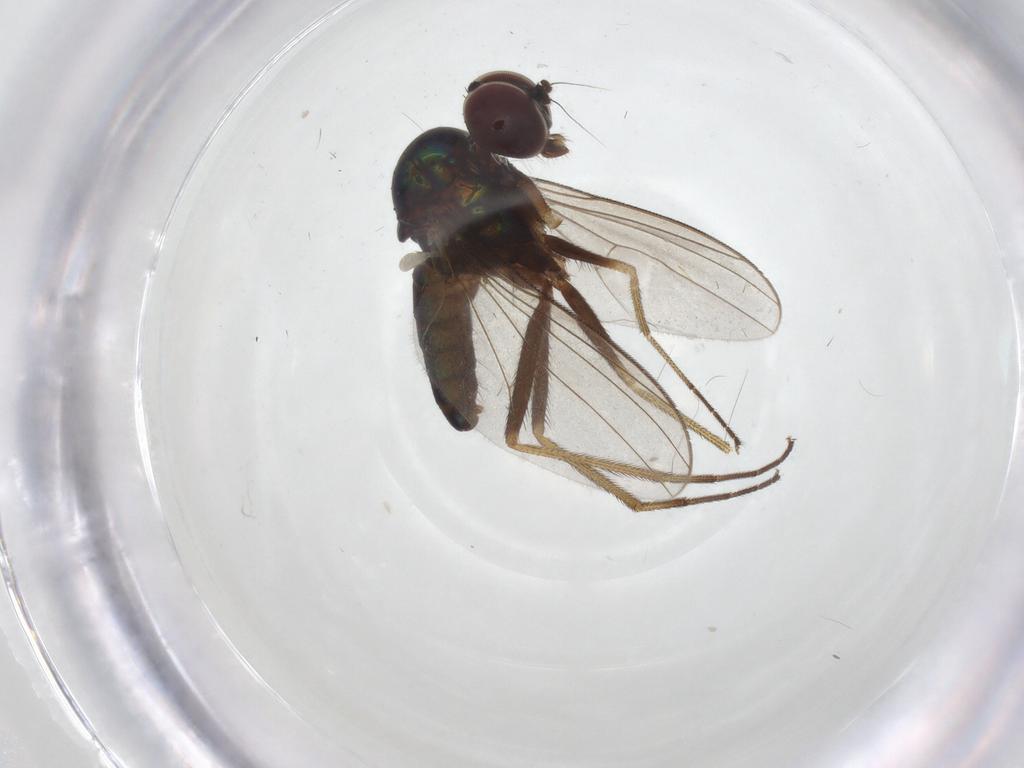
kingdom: Animalia
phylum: Arthropoda
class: Insecta
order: Diptera
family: Dolichopodidae
